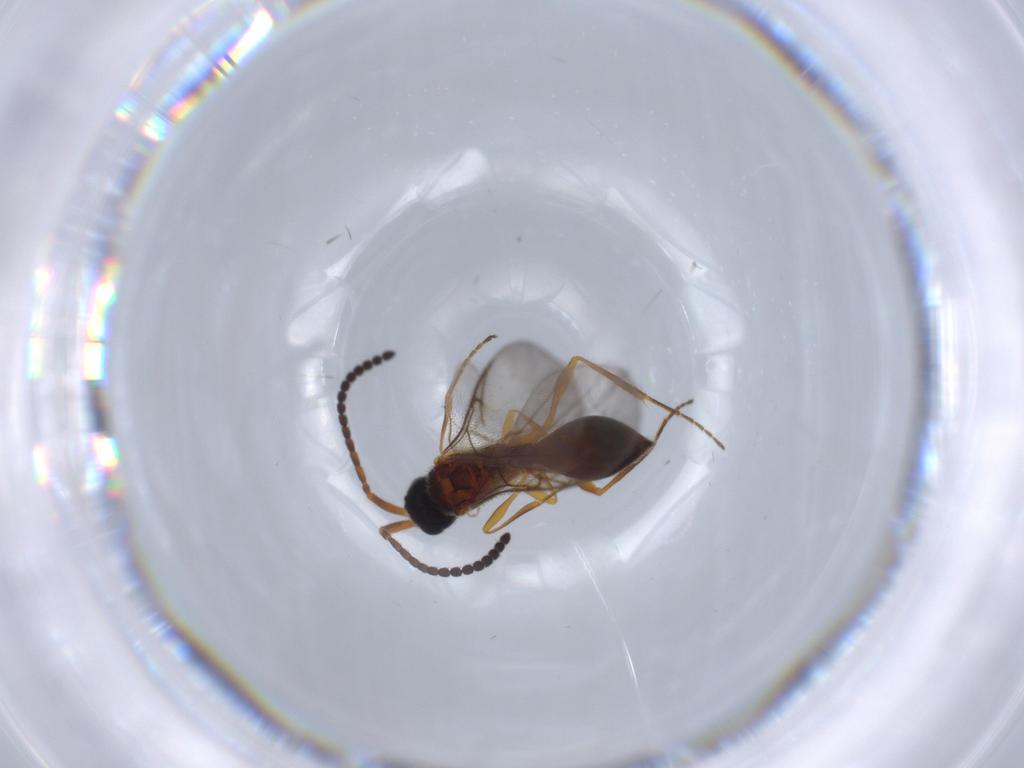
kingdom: Animalia
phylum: Arthropoda
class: Insecta
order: Hymenoptera
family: Diapriidae
